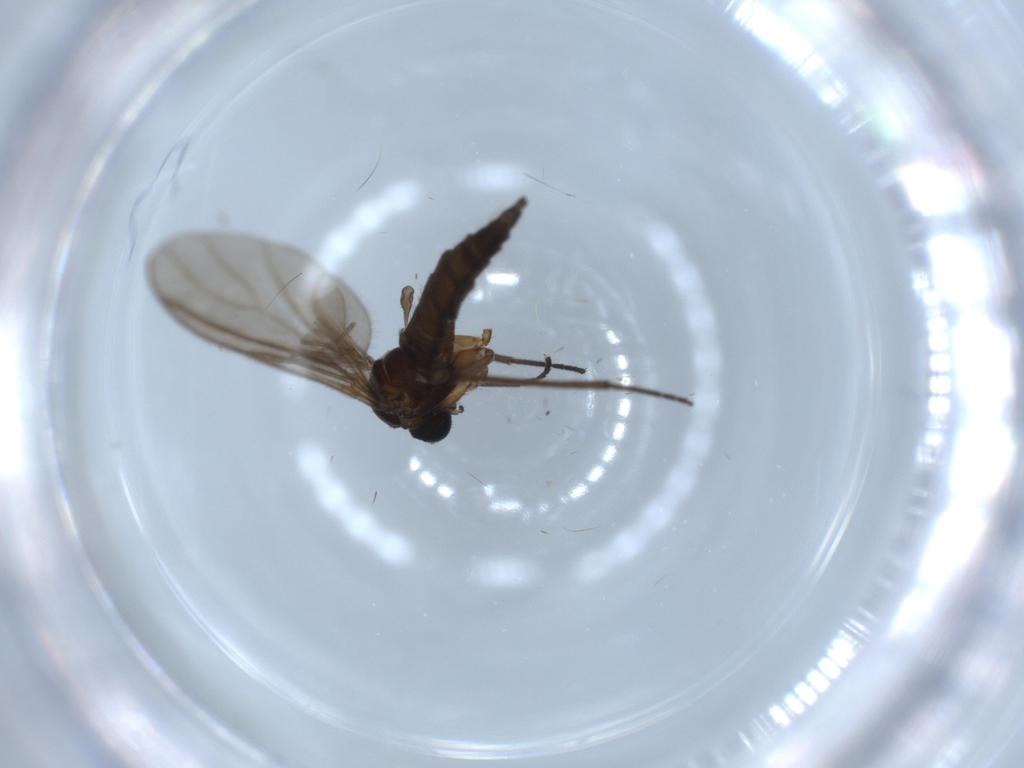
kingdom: Animalia
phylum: Arthropoda
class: Insecta
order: Diptera
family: Sciaridae
